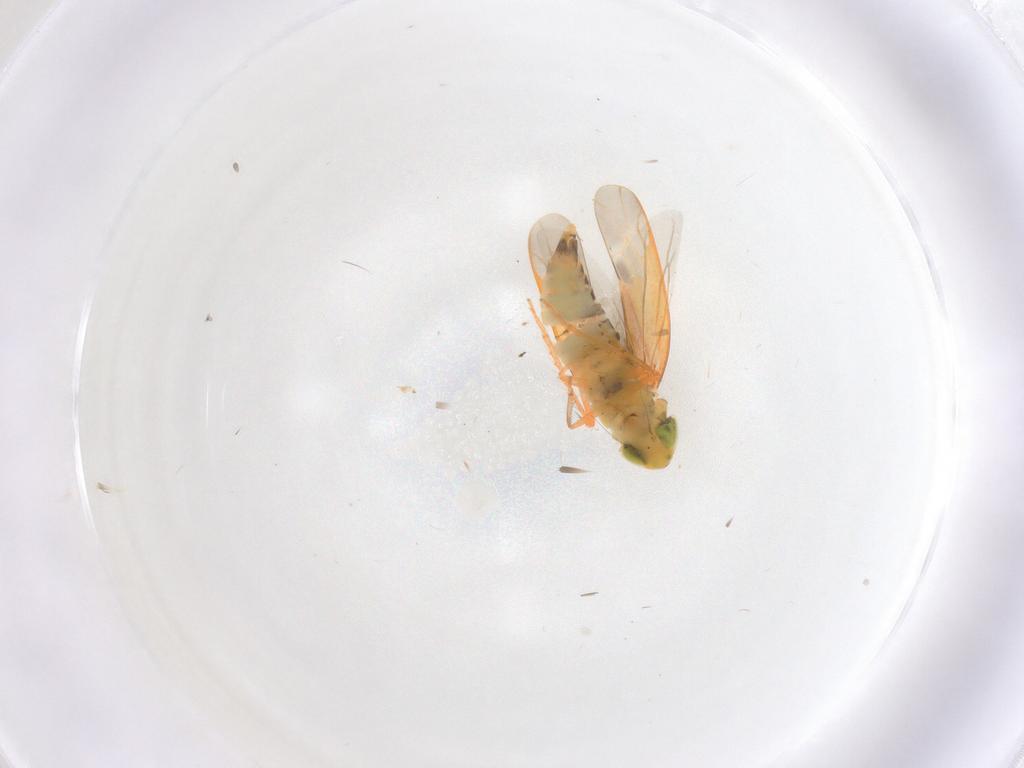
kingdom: Animalia
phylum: Arthropoda
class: Insecta
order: Hemiptera
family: Cicadellidae
